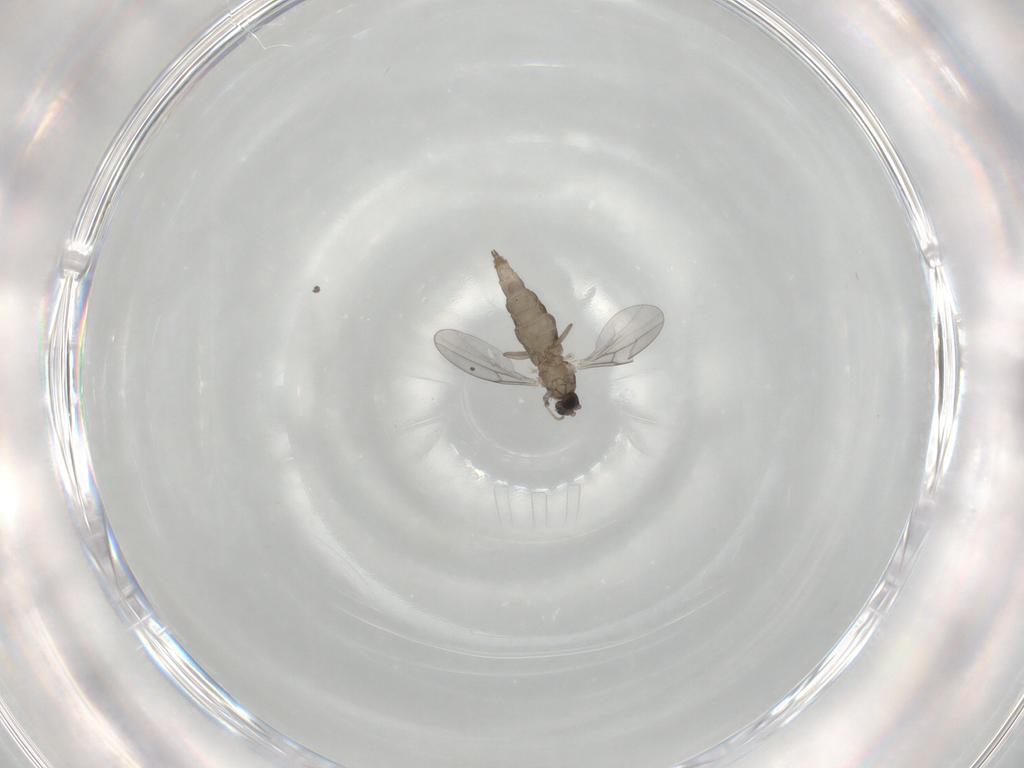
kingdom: Animalia
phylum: Arthropoda
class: Insecta
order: Diptera
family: Cecidomyiidae
